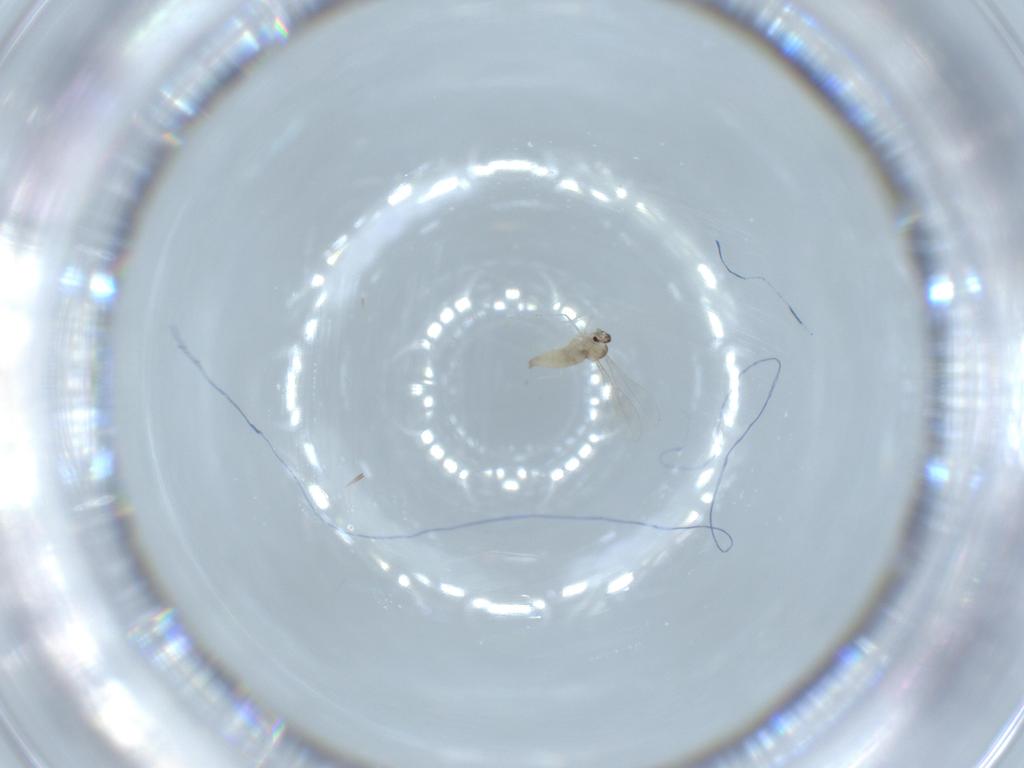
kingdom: Animalia
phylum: Arthropoda
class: Insecta
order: Diptera
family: Cecidomyiidae
